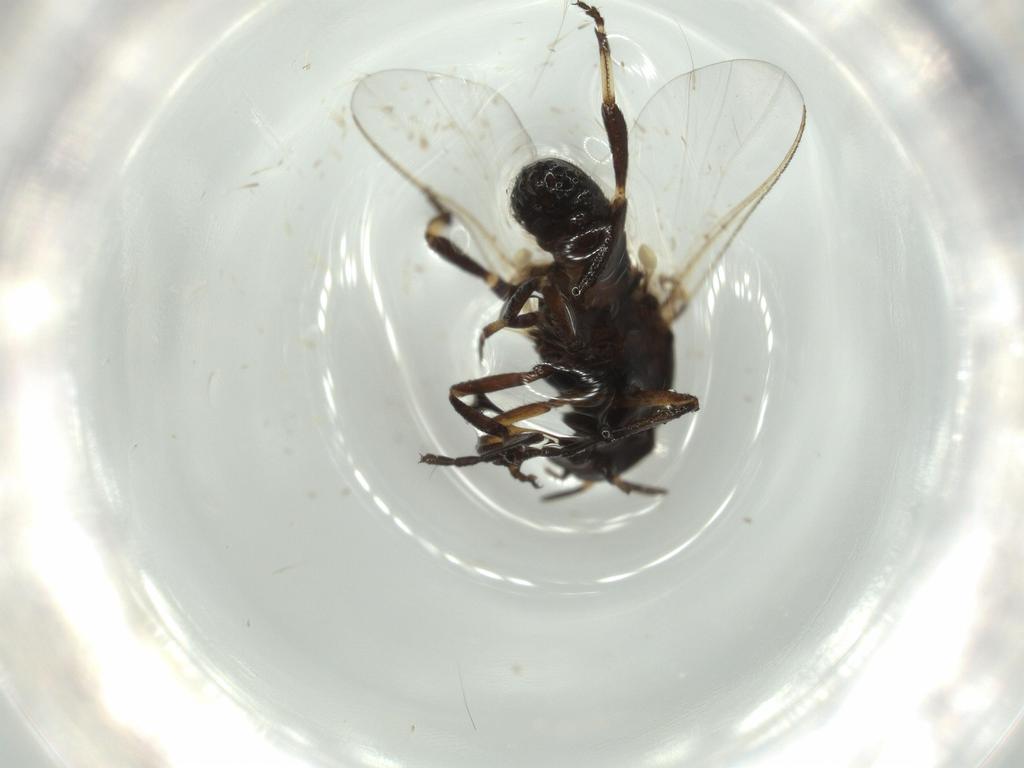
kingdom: Animalia
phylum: Arthropoda
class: Insecta
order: Diptera
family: Sciaridae
